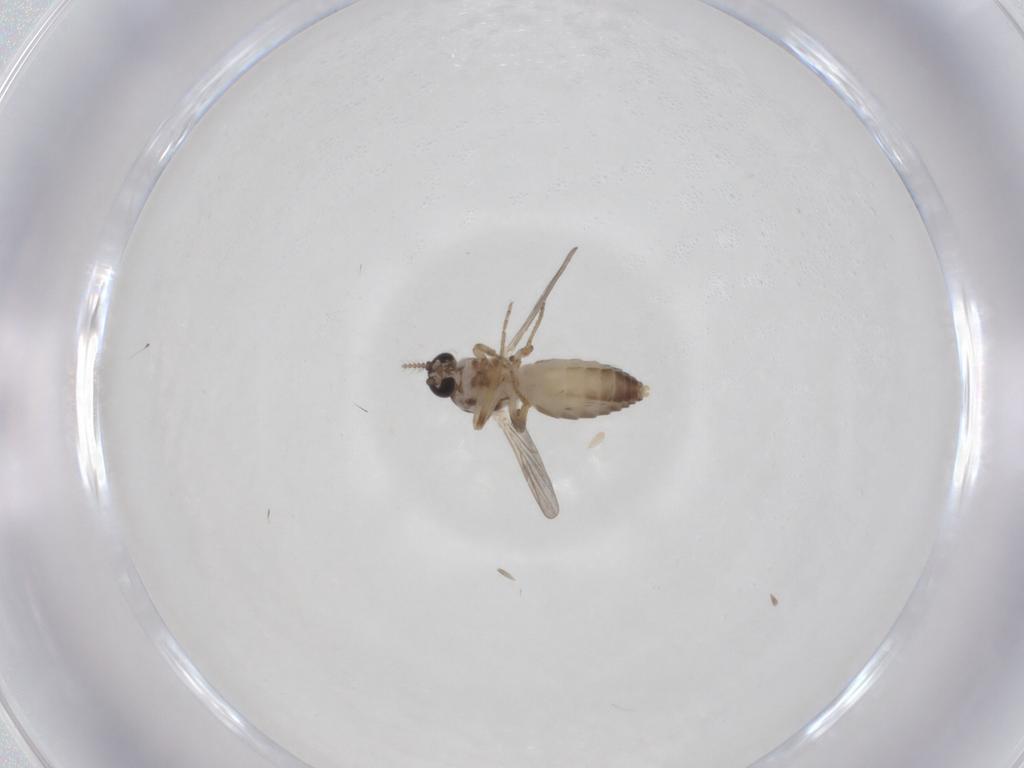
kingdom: Animalia
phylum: Arthropoda
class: Insecta
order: Diptera
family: Ceratopogonidae
